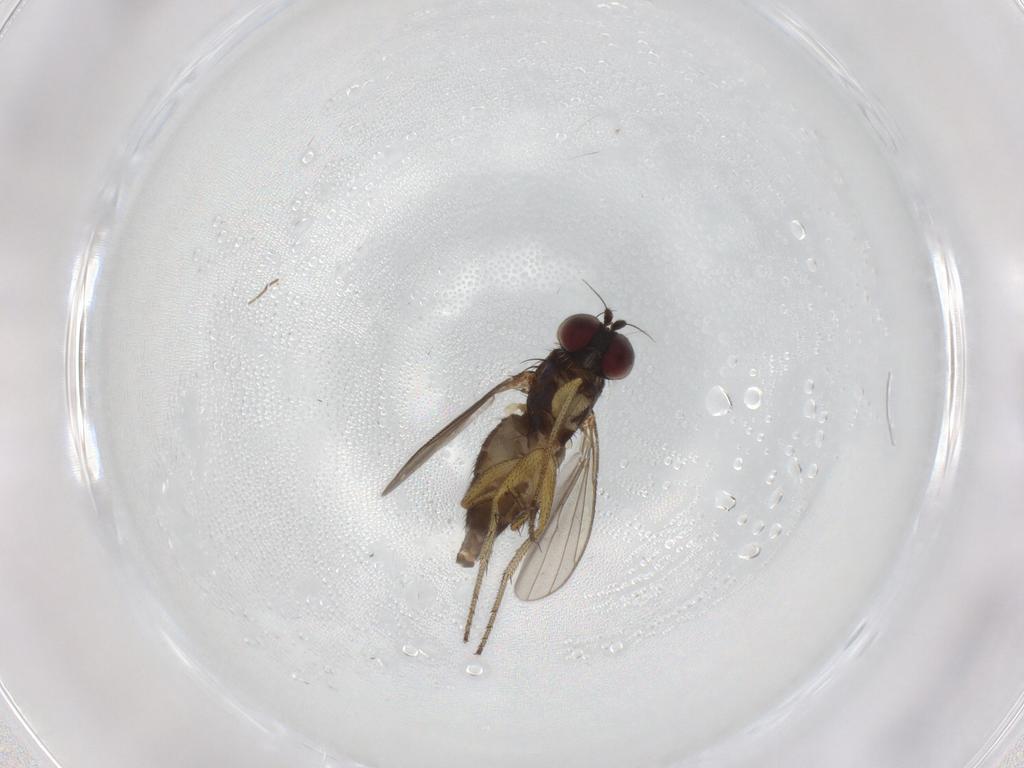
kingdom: Animalia
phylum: Arthropoda
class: Insecta
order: Diptera
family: Dolichopodidae
